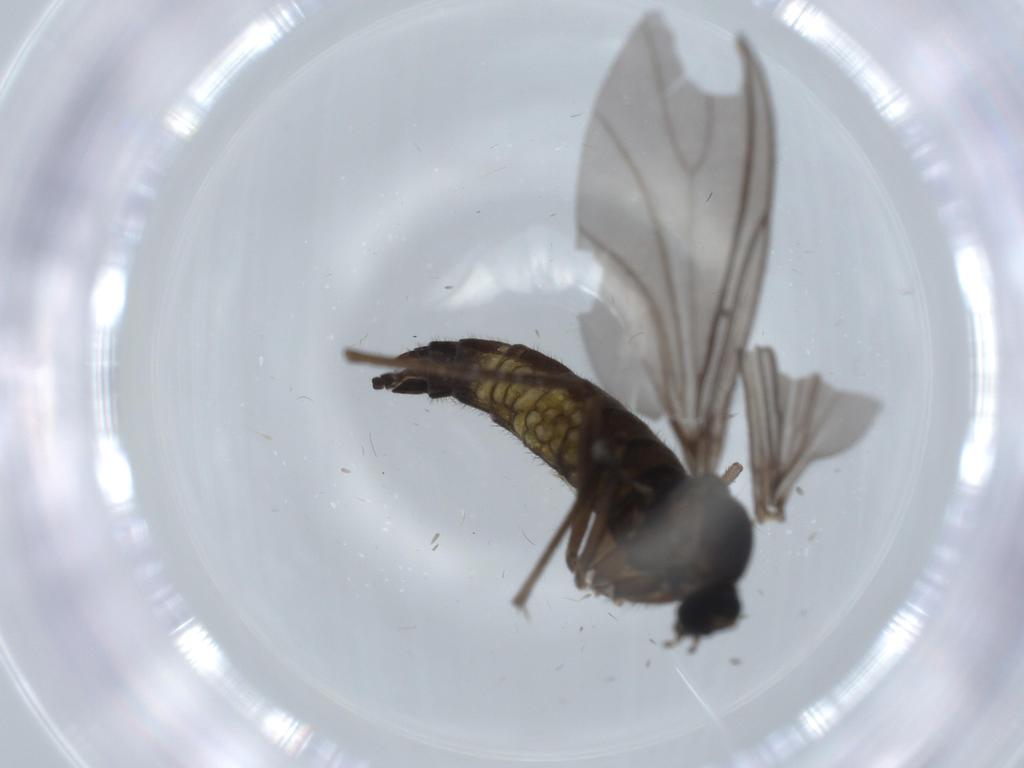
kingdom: Animalia
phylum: Arthropoda
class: Insecta
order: Diptera
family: Sciaridae
